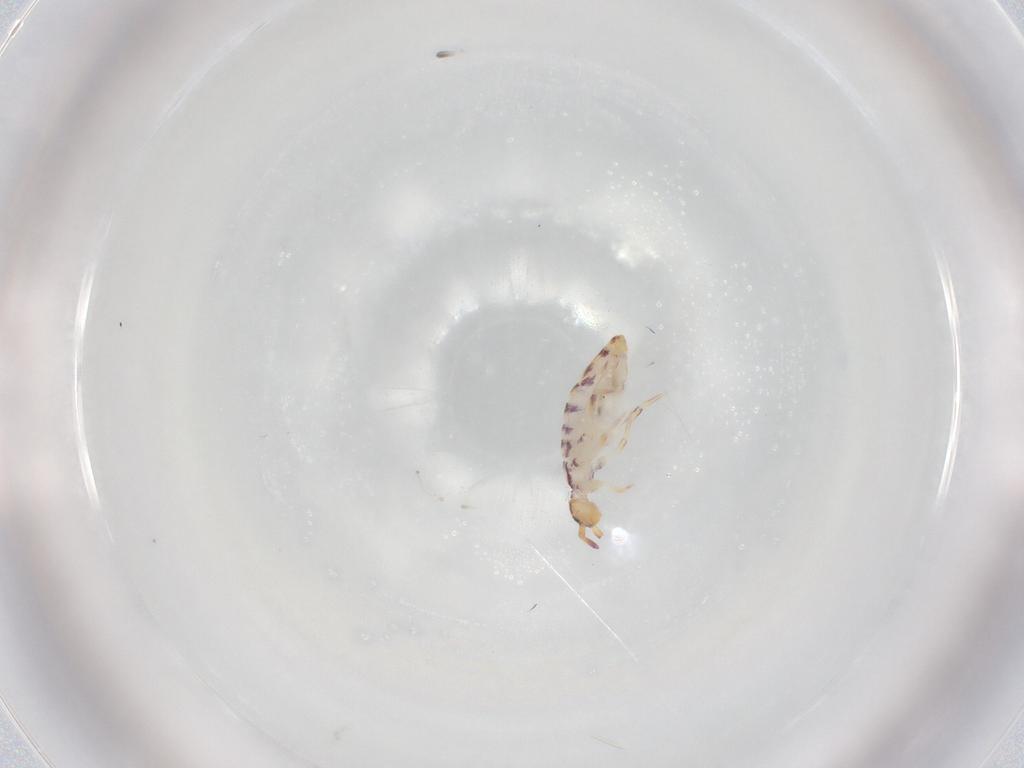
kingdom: Animalia
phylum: Arthropoda
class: Collembola
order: Entomobryomorpha
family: Entomobryidae
